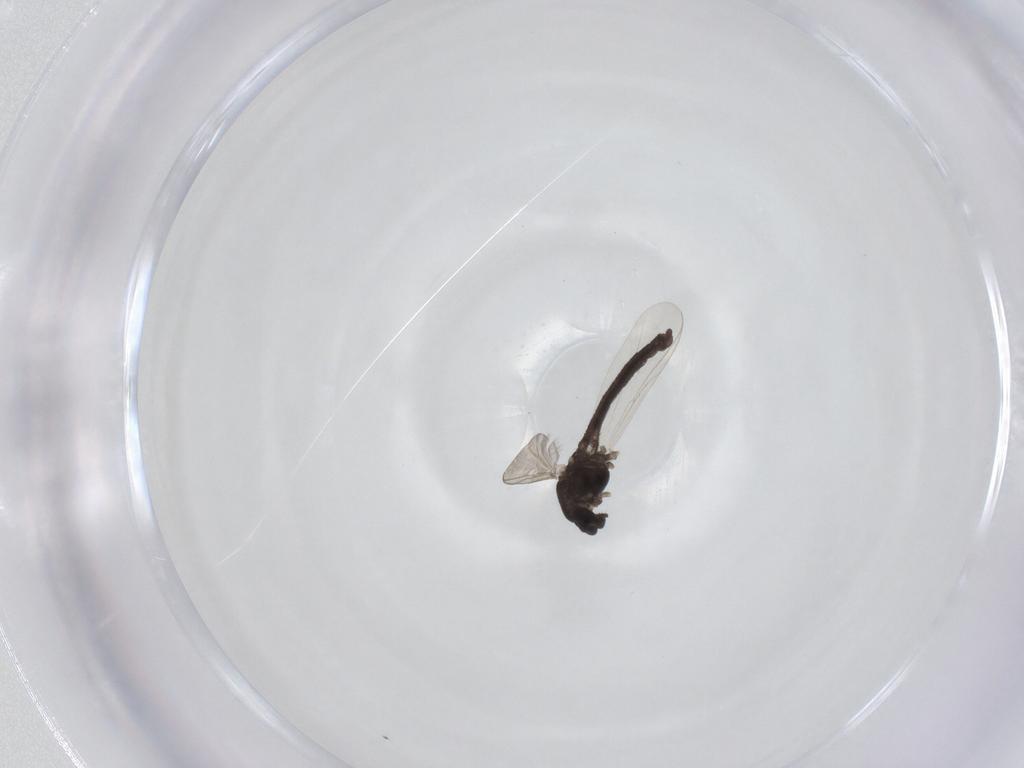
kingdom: Animalia
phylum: Arthropoda
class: Insecta
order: Diptera
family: Chironomidae
